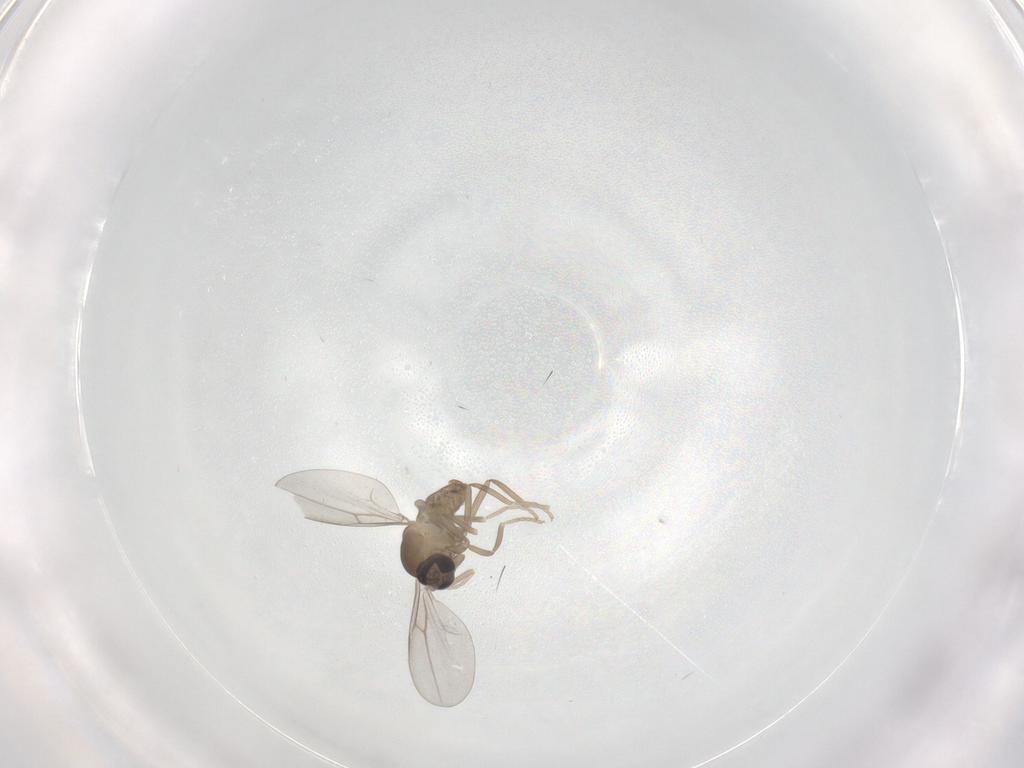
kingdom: Animalia
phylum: Arthropoda
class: Insecta
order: Diptera
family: Cecidomyiidae
